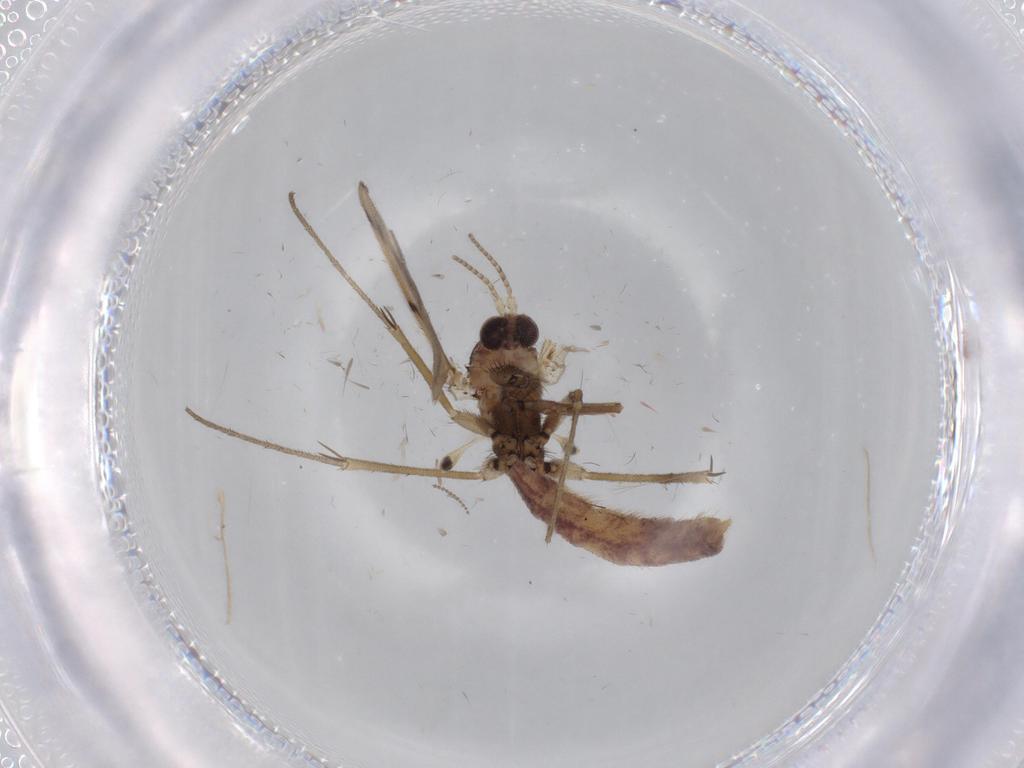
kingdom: Animalia
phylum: Arthropoda
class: Insecta
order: Diptera
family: Mycetophilidae
